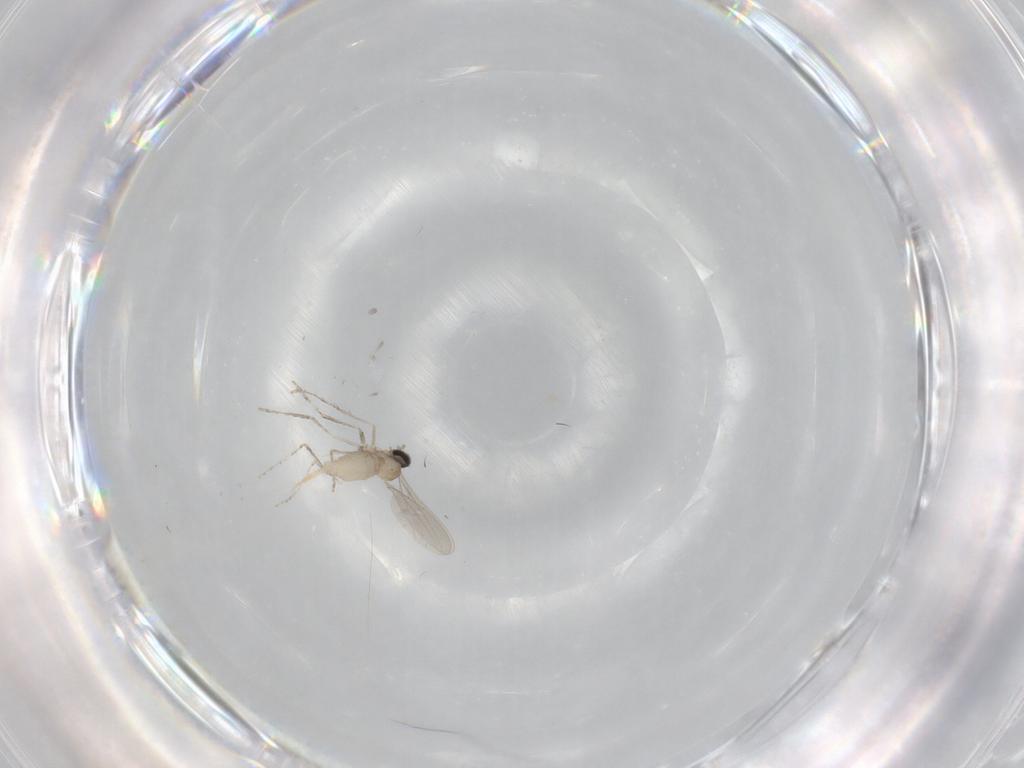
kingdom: Animalia
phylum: Arthropoda
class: Insecta
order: Diptera
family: Cecidomyiidae
